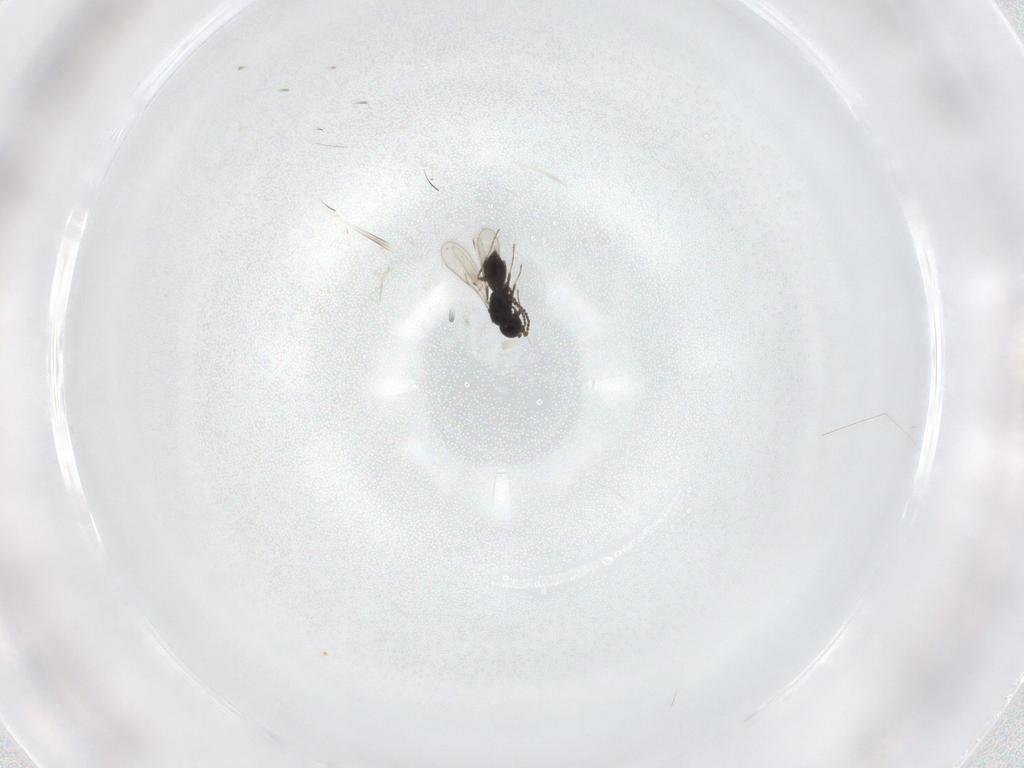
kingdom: Animalia
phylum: Arthropoda
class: Insecta
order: Hymenoptera
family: Scelionidae
